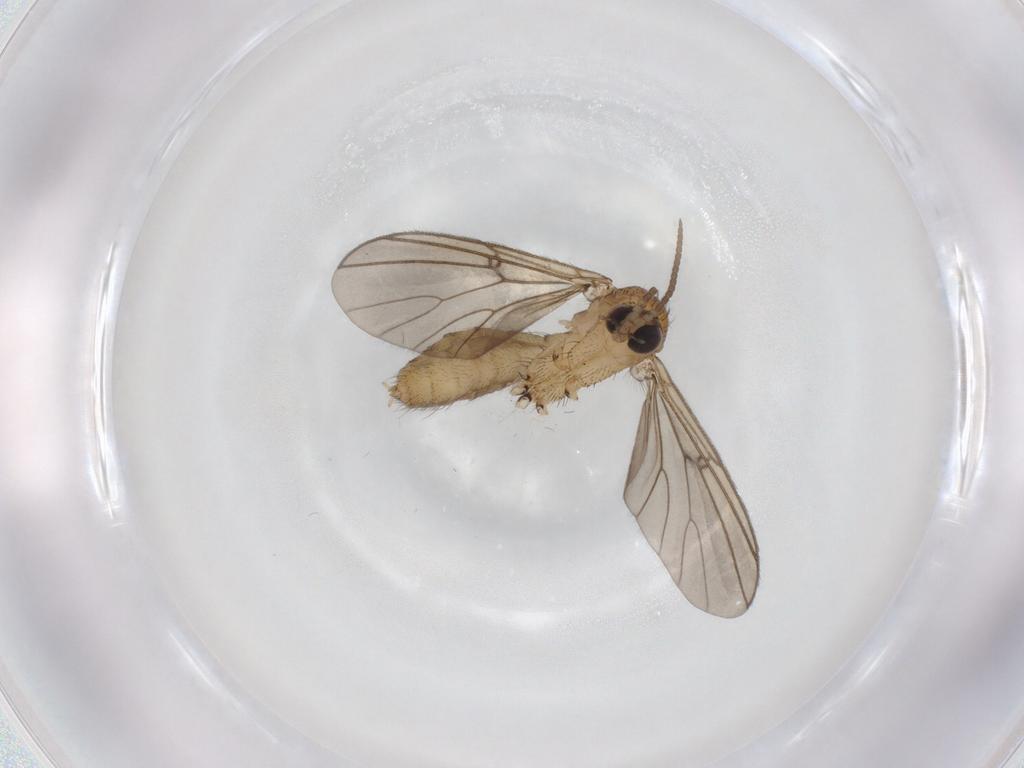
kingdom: Animalia
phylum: Arthropoda
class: Insecta
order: Diptera
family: Mycetophilidae
